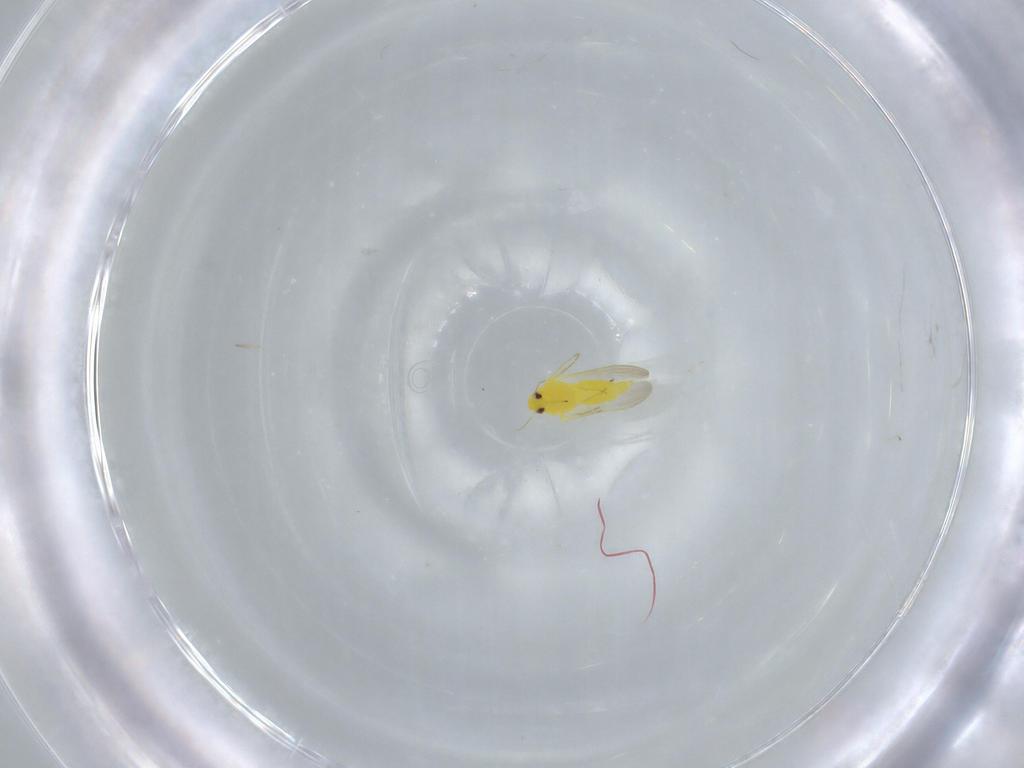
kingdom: Animalia
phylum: Arthropoda
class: Insecta
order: Hemiptera
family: Aleyrodidae
